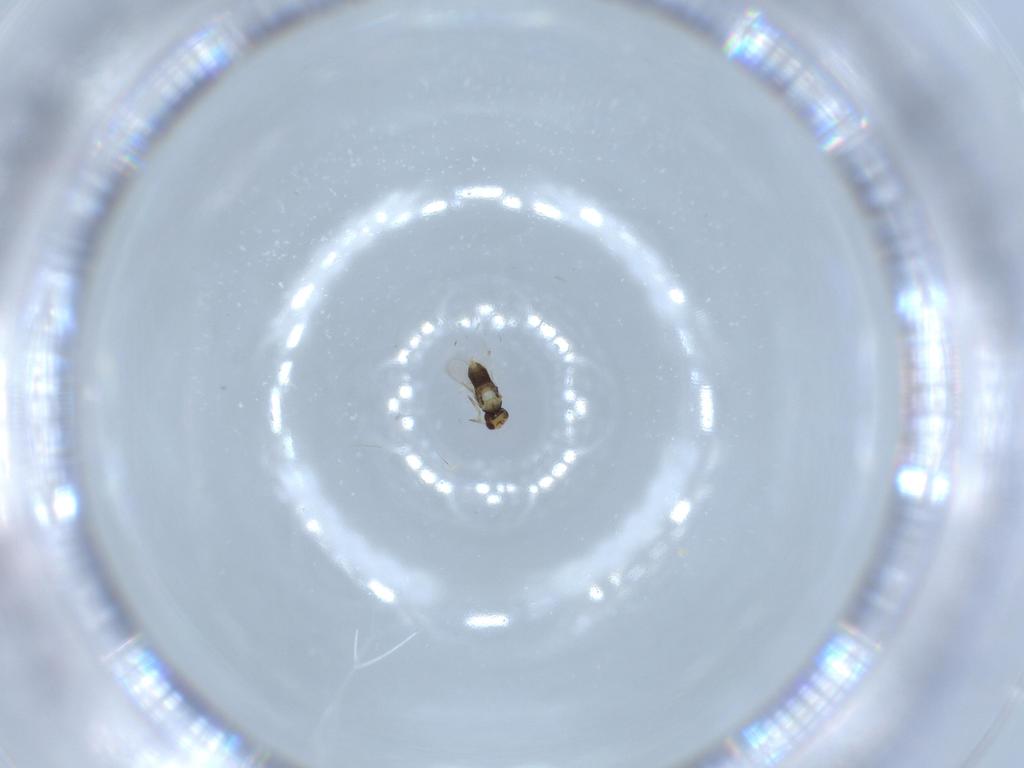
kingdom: Animalia
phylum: Arthropoda
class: Insecta
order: Hymenoptera
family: Aphelinidae
